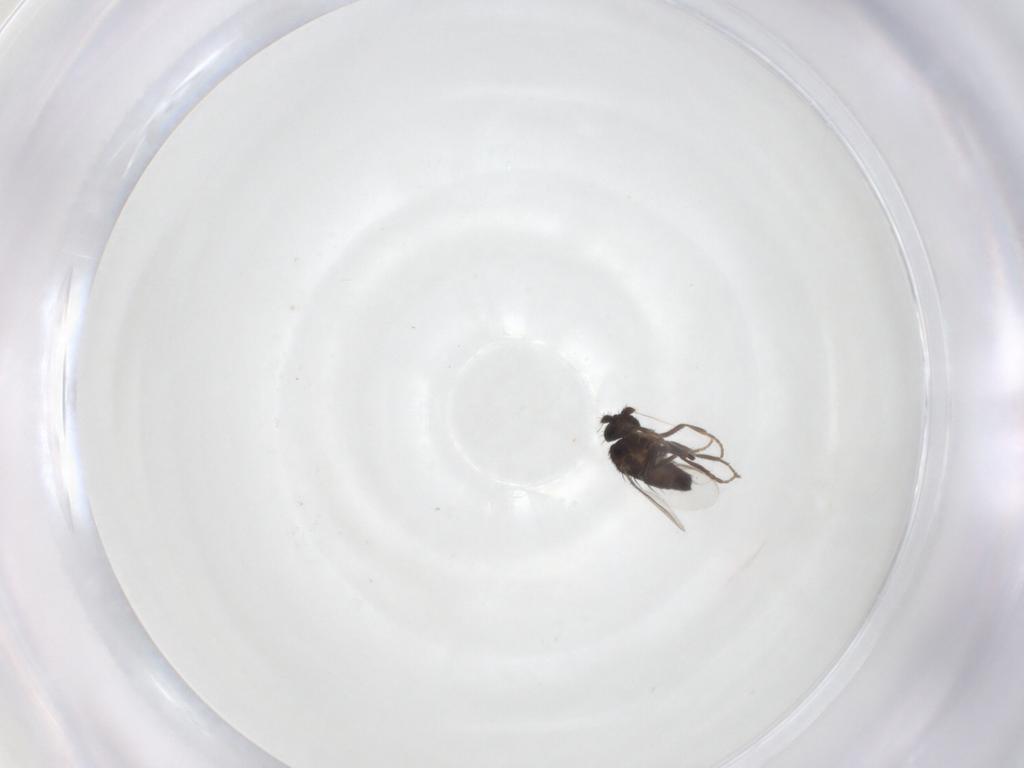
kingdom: Animalia
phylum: Arthropoda
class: Insecta
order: Diptera
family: Sphaeroceridae
